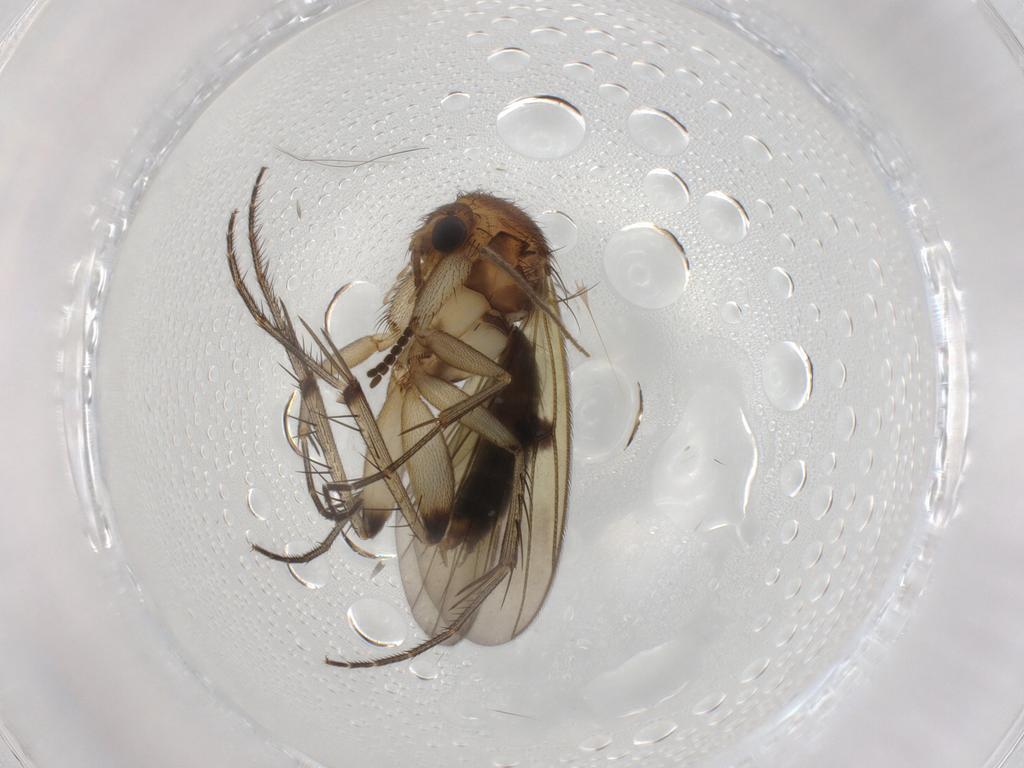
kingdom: Animalia
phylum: Arthropoda
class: Insecta
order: Diptera
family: Mycetophilidae
